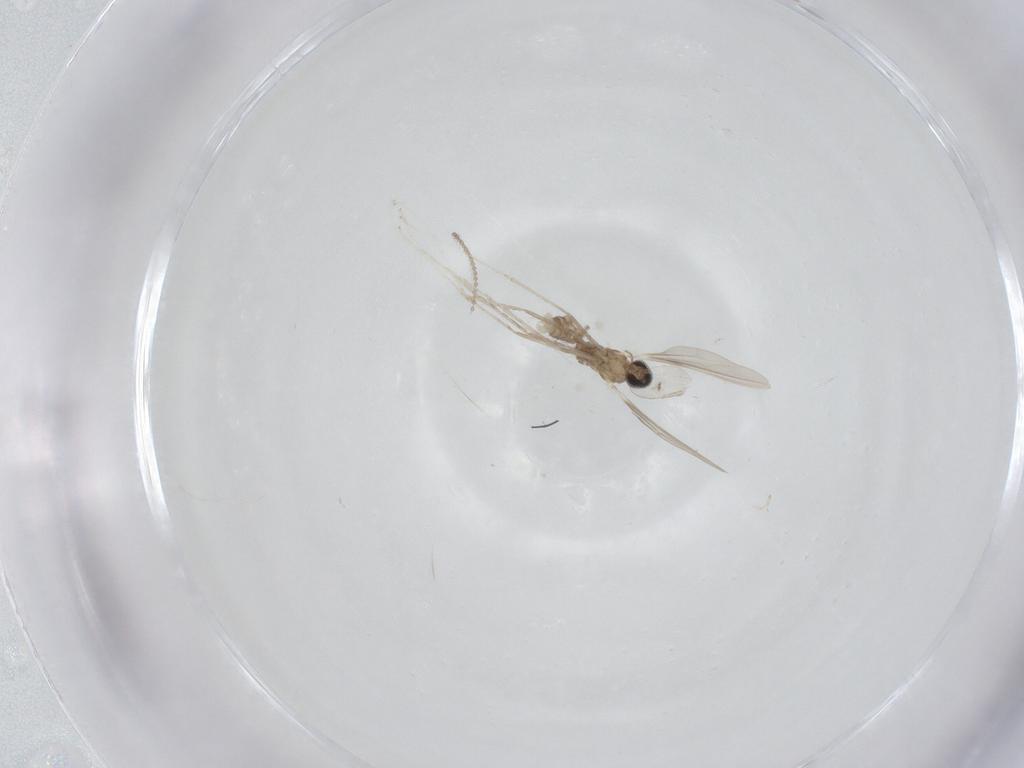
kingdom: Animalia
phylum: Arthropoda
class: Insecta
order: Diptera
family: Ceratopogonidae
